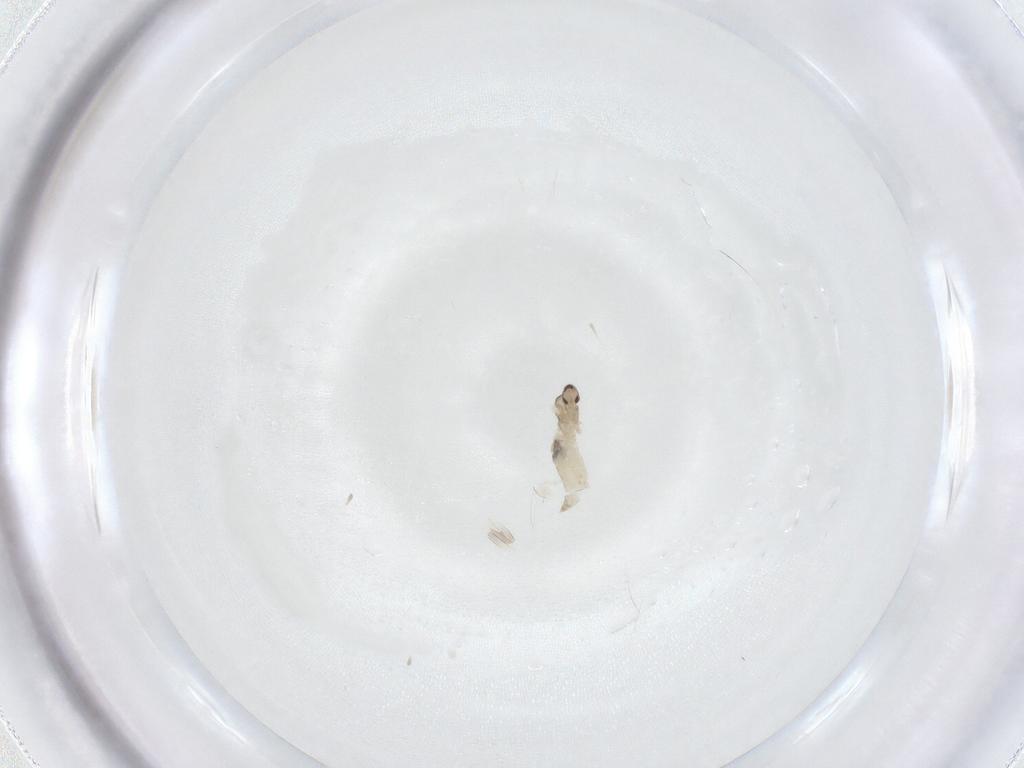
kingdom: Animalia
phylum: Arthropoda
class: Insecta
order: Diptera
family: Cecidomyiidae
